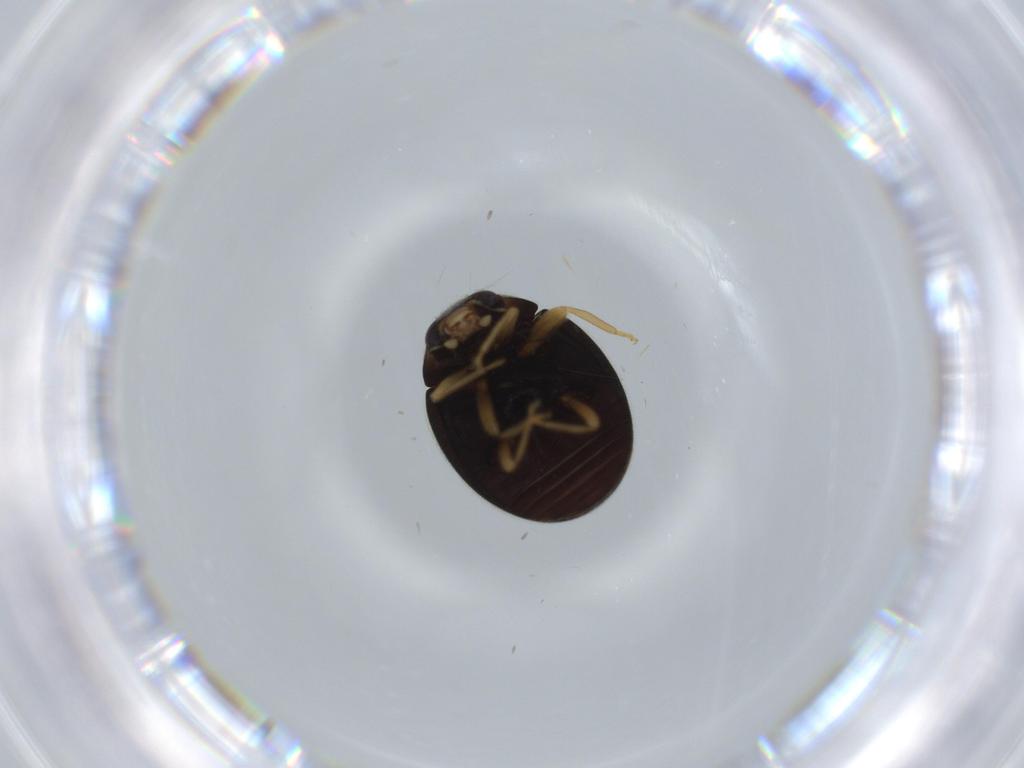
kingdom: Animalia
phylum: Arthropoda
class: Insecta
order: Coleoptera
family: Coccinellidae
